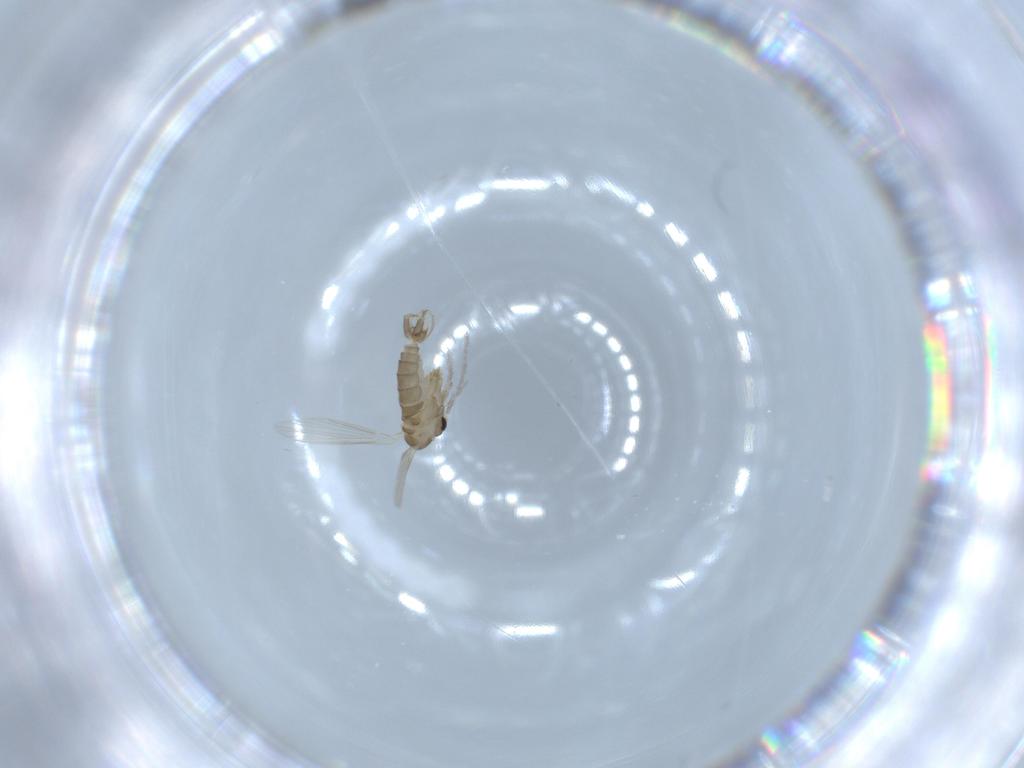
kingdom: Animalia
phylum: Arthropoda
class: Insecta
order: Diptera
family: Psychodidae
